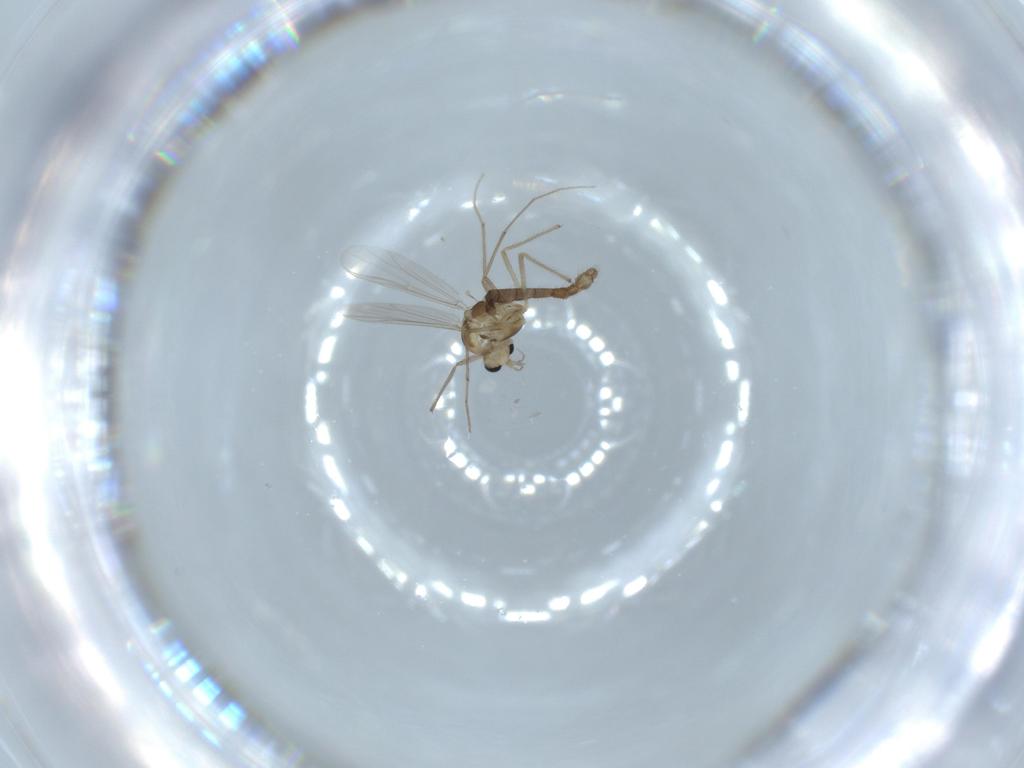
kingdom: Animalia
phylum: Arthropoda
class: Insecta
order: Diptera
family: Chironomidae
